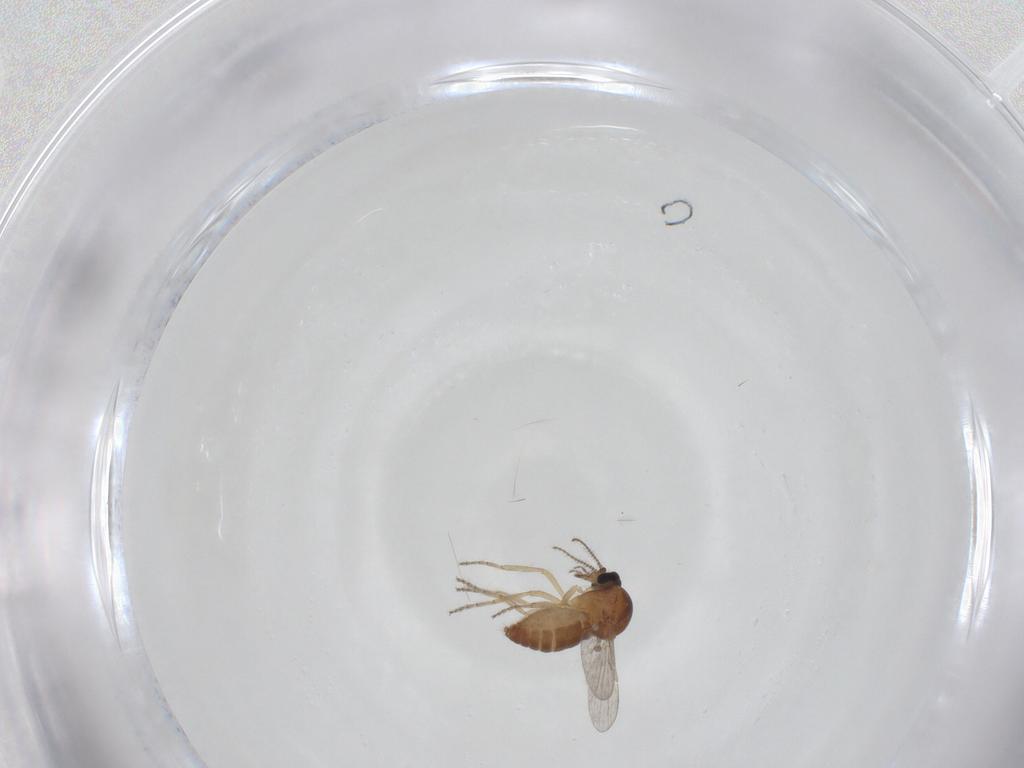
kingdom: Animalia
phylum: Arthropoda
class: Insecta
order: Diptera
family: Ceratopogonidae
